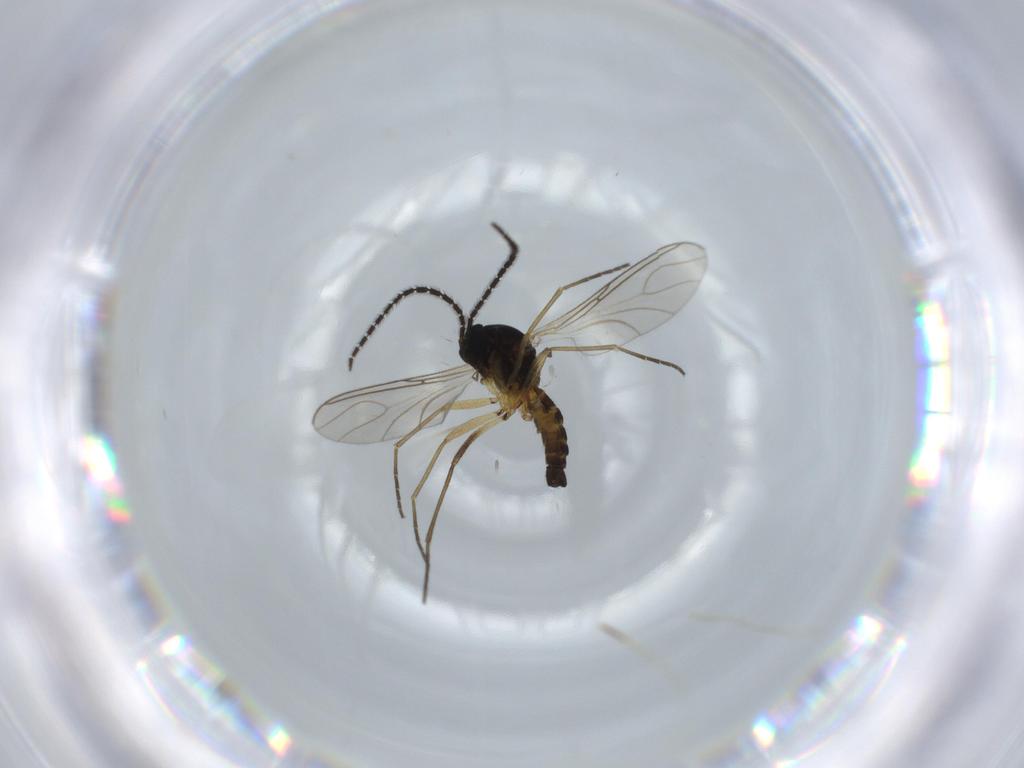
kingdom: Animalia
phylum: Arthropoda
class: Insecta
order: Diptera
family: Sciaridae
